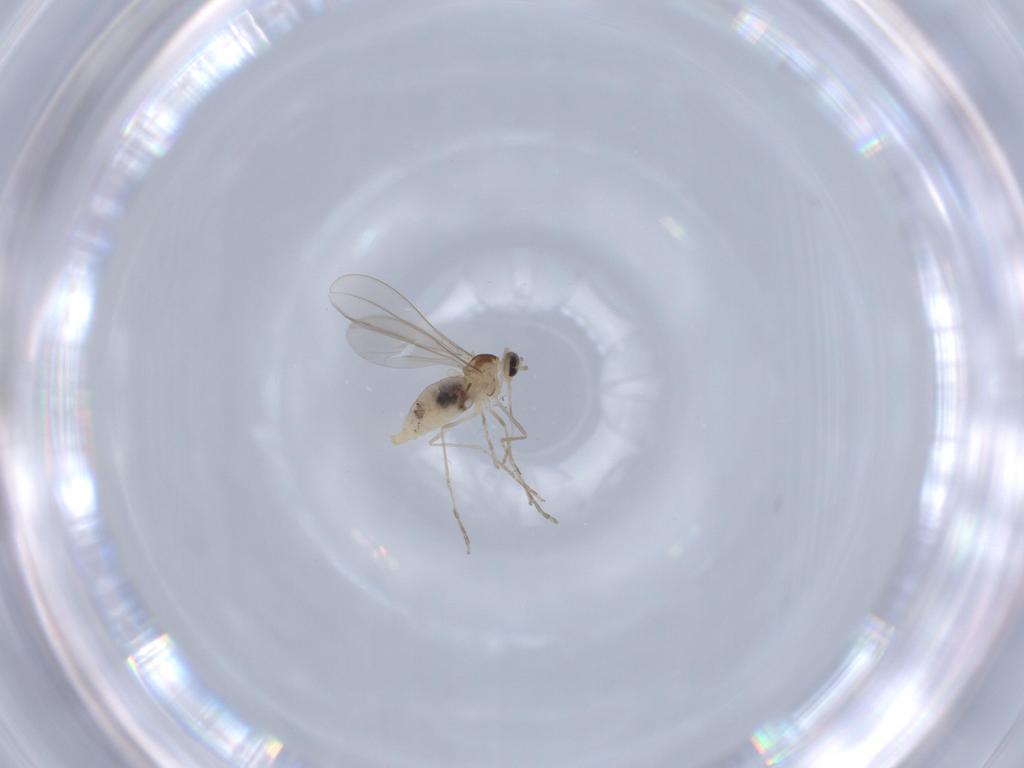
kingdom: Animalia
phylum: Arthropoda
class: Insecta
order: Diptera
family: Cecidomyiidae
